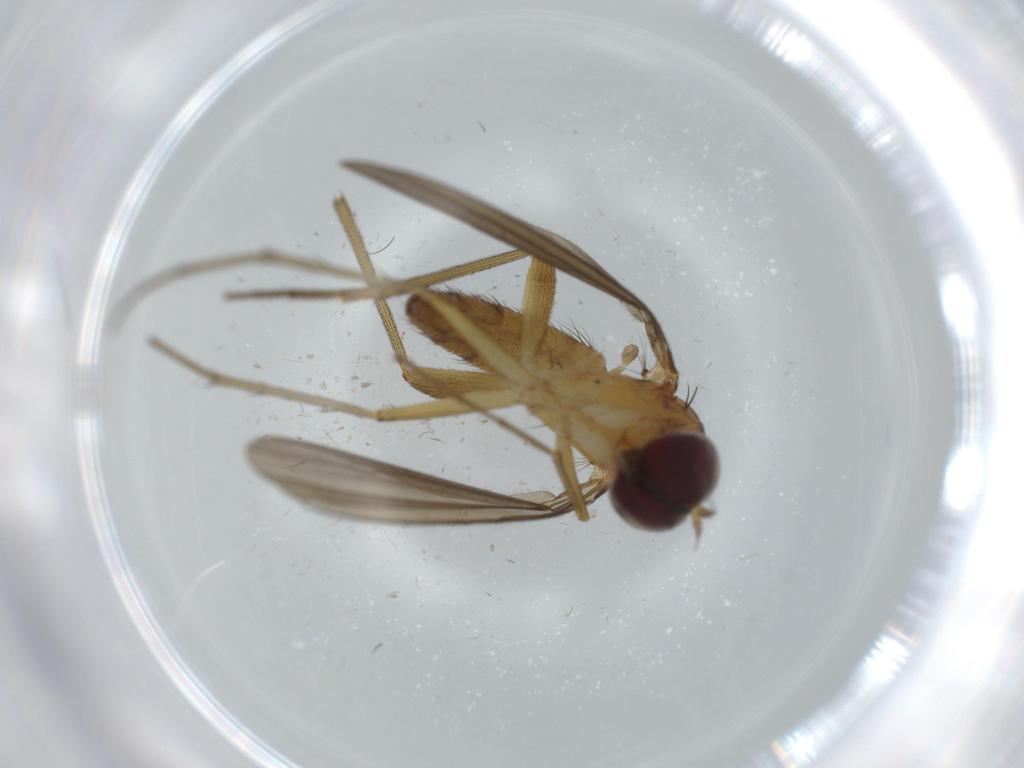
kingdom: Animalia
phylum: Arthropoda
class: Insecta
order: Diptera
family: Dolichopodidae
